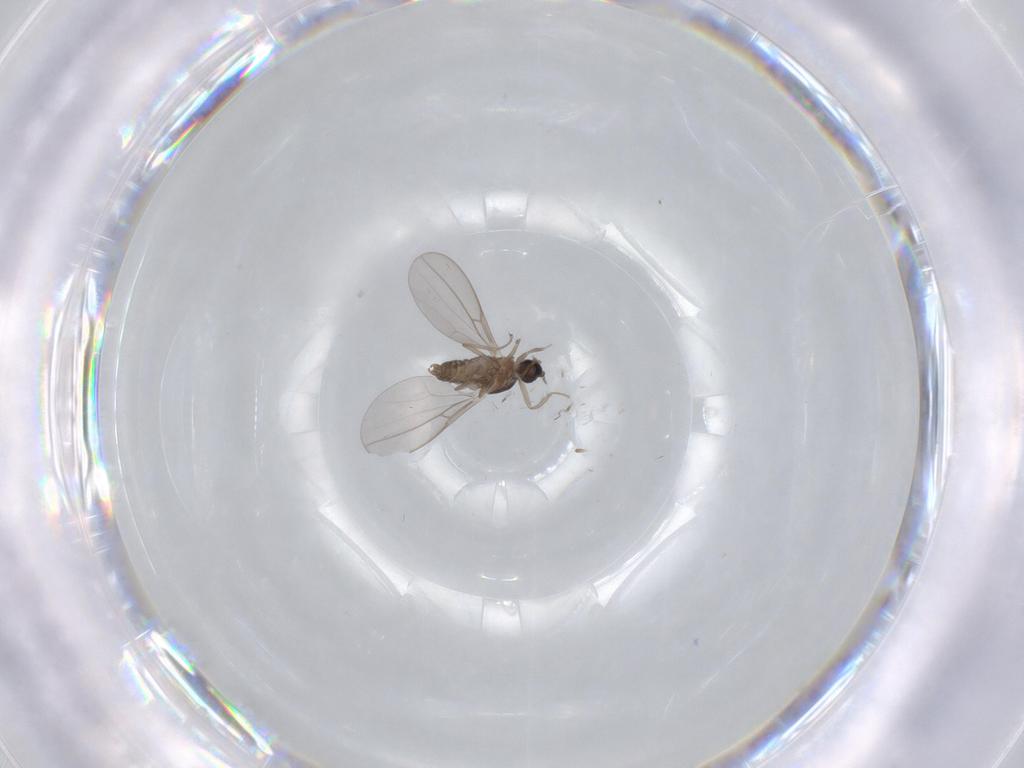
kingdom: Animalia
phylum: Arthropoda
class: Insecta
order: Diptera
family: Cecidomyiidae
